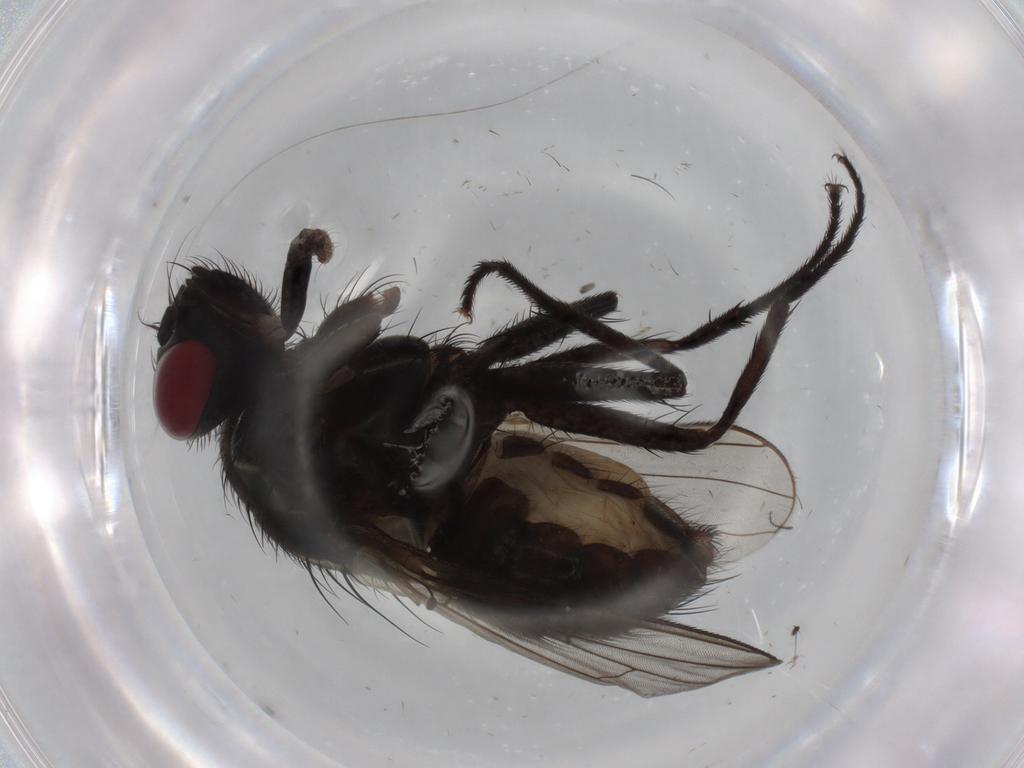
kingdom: Animalia
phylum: Arthropoda
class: Insecta
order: Diptera
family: Muscidae
